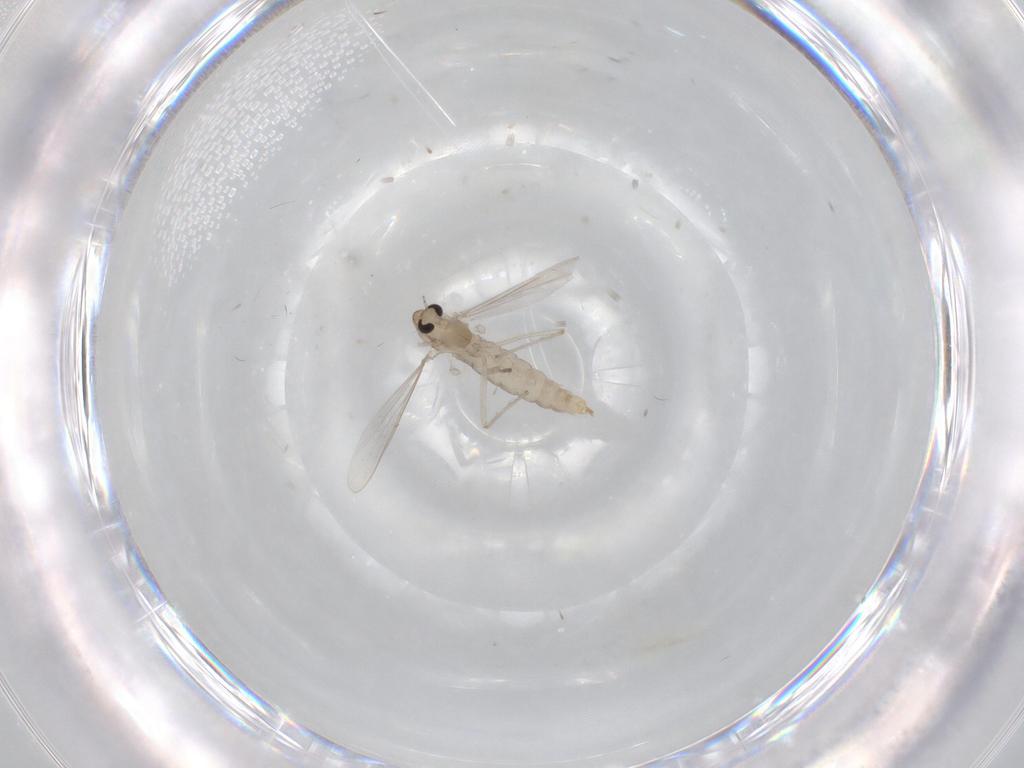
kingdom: Animalia
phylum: Arthropoda
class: Insecta
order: Diptera
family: Chironomidae
